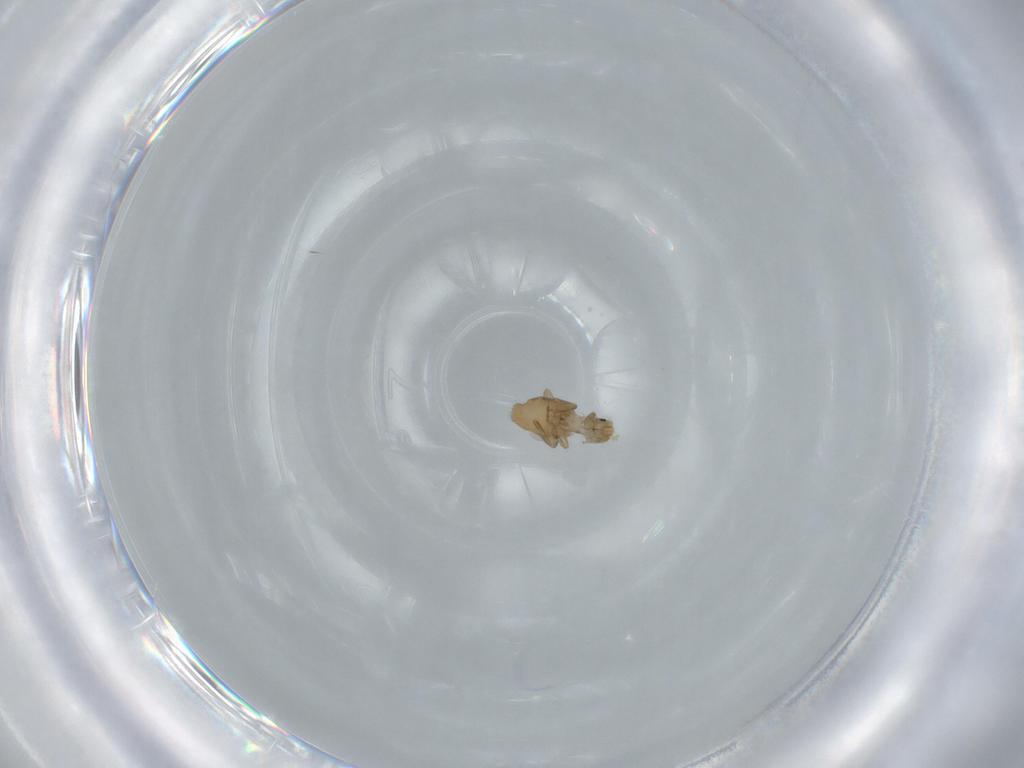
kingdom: Animalia
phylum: Arthropoda
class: Insecta
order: Diptera
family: Phoridae
